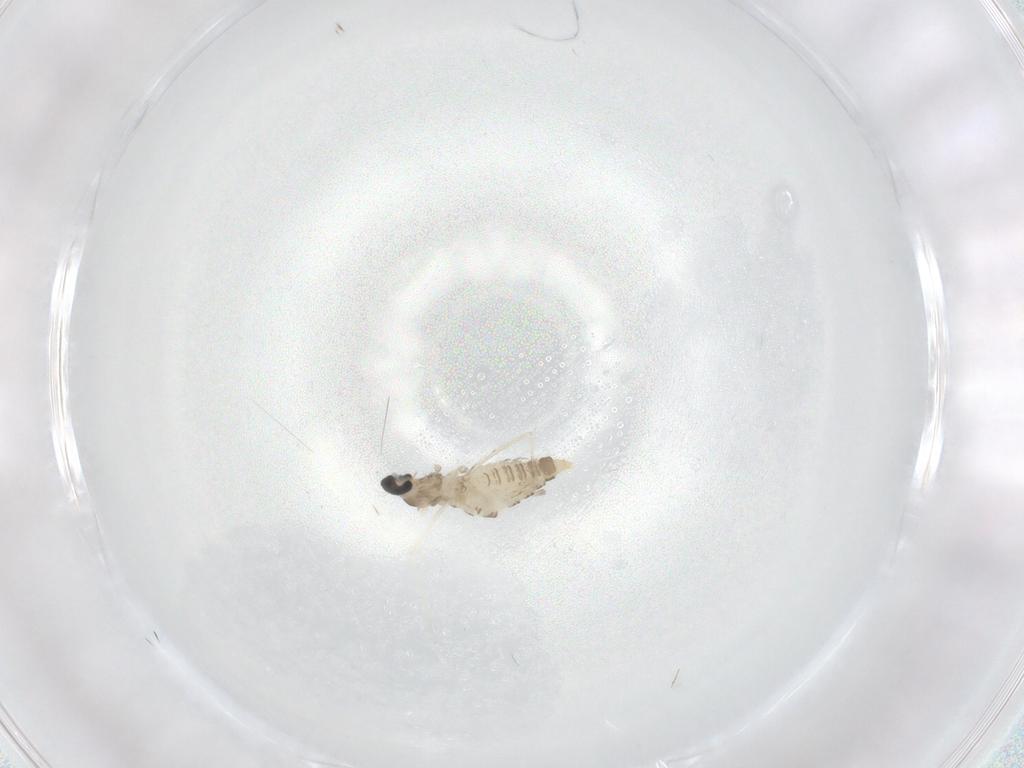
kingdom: Animalia
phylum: Arthropoda
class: Insecta
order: Diptera
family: Cecidomyiidae
